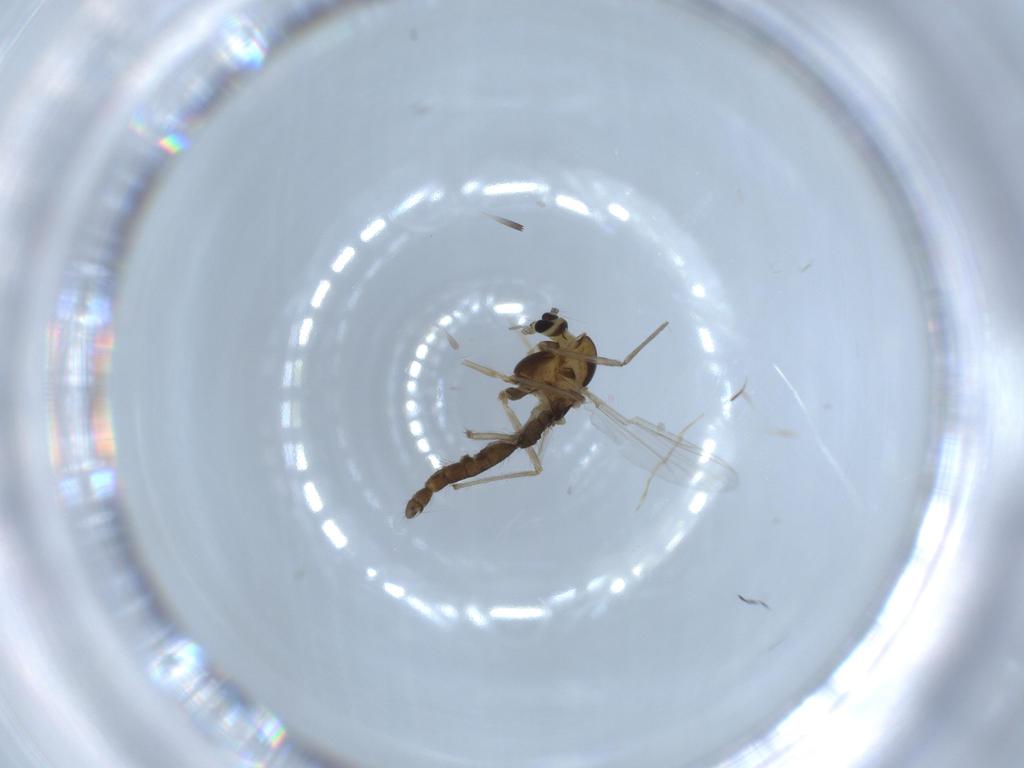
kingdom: Animalia
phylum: Arthropoda
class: Insecta
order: Diptera
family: Chironomidae
